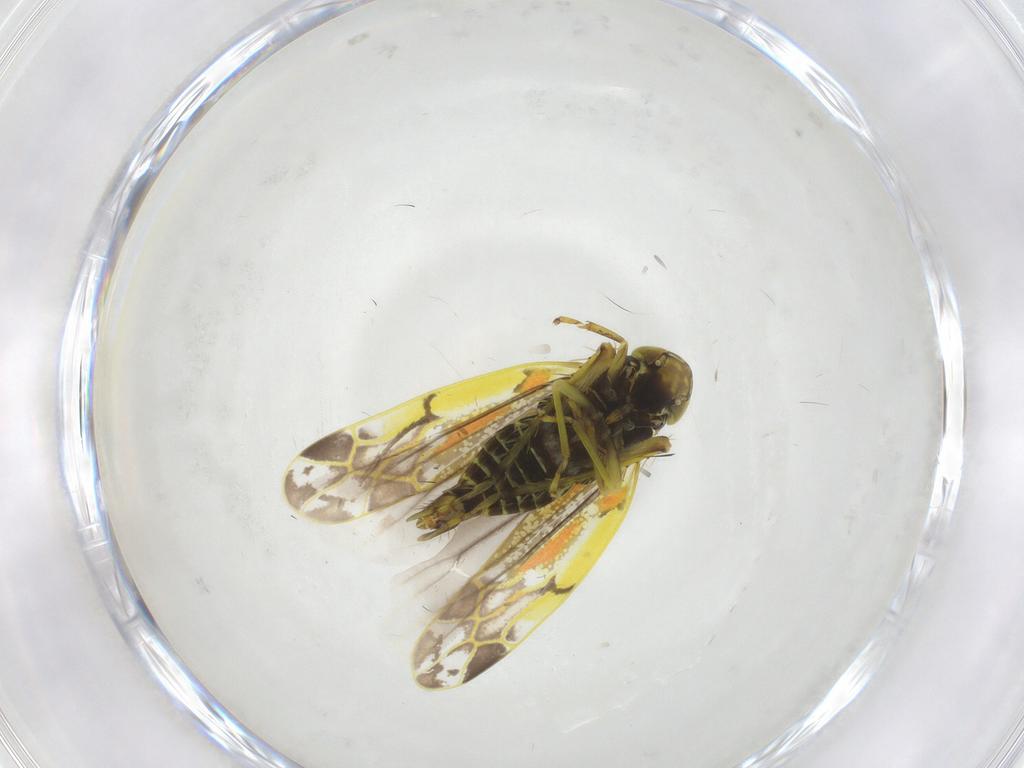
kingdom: Animalia
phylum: Arthropoda
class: Insecta
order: Hemiptera
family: Cicadellidae
